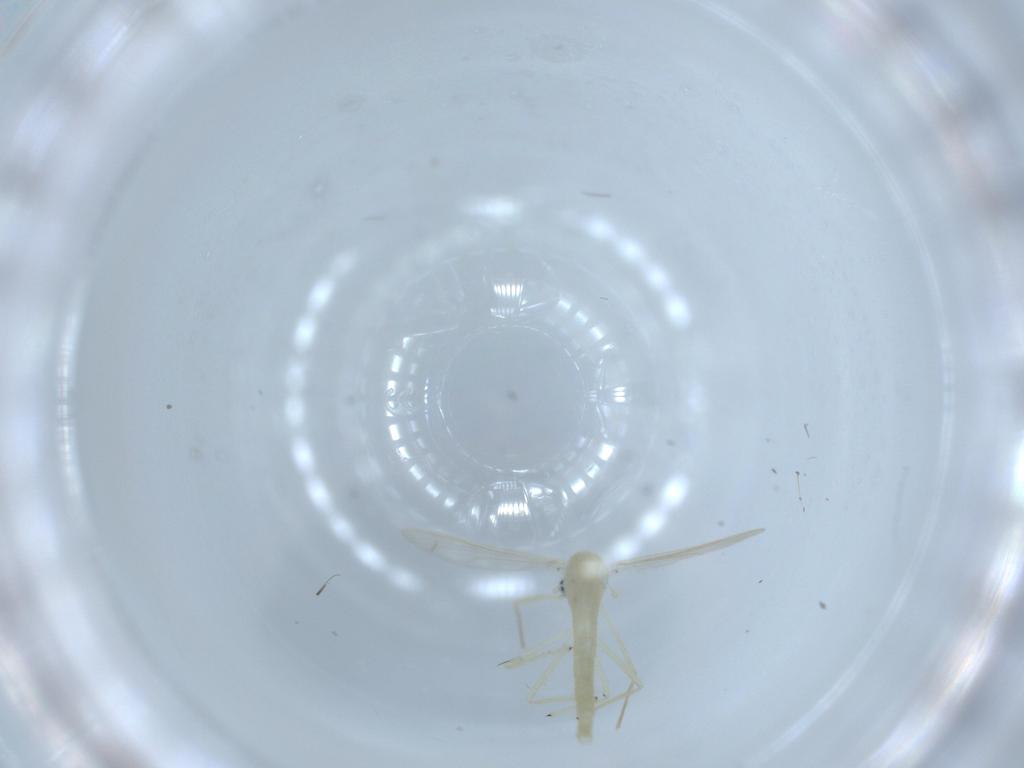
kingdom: Animalia
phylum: Arthropoda
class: Insecta
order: Diptera
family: Chironomidae
